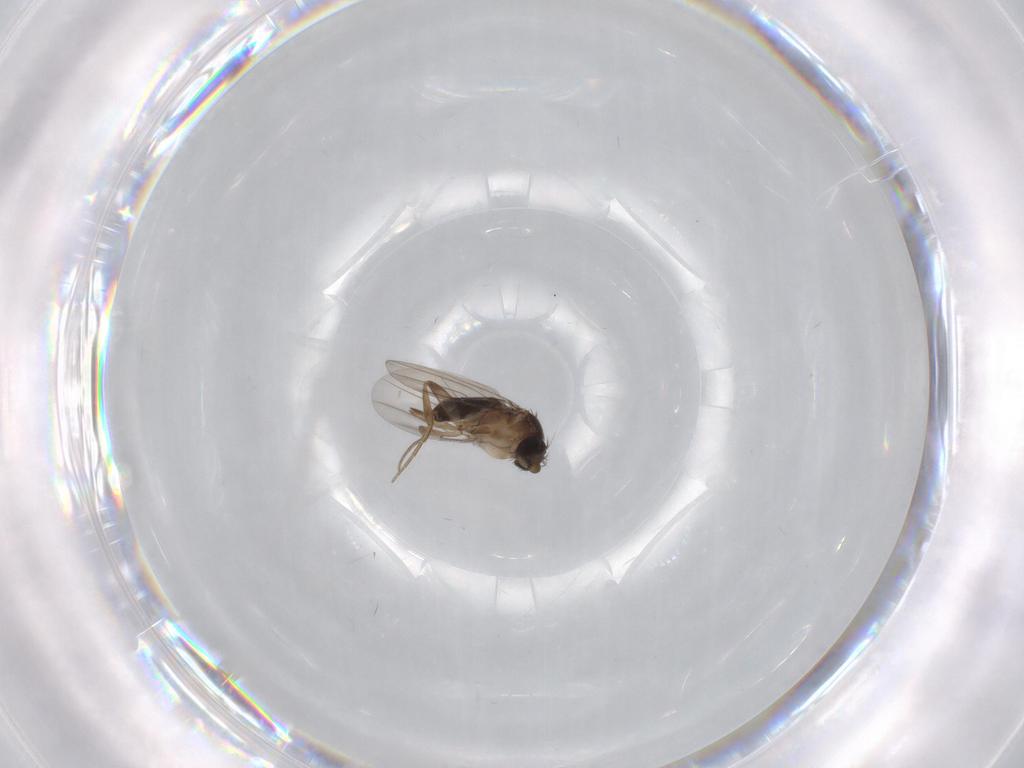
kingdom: Animalia
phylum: Arthropoda
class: Insecta
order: Diptera
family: Phoridae
